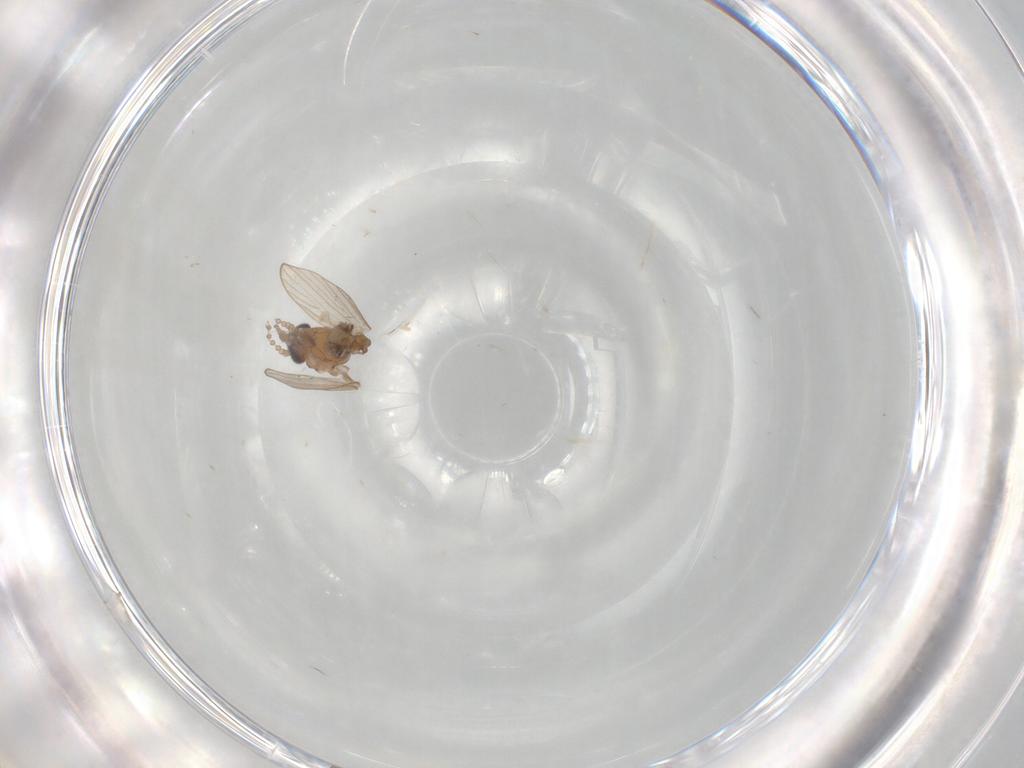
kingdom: Animalia
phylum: Arthropoda
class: Insecta
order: Diptera
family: Psychodidae
